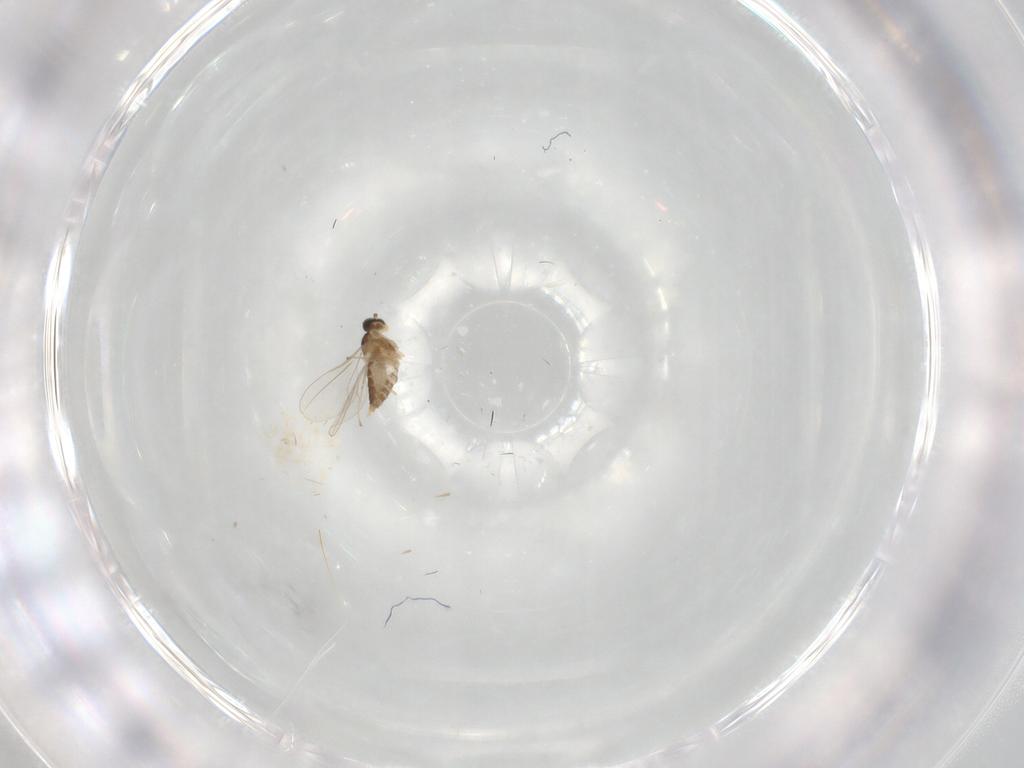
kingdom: Animalia
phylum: Arthropoda
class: Insecta
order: Diptera
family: Cecidomyiidae
